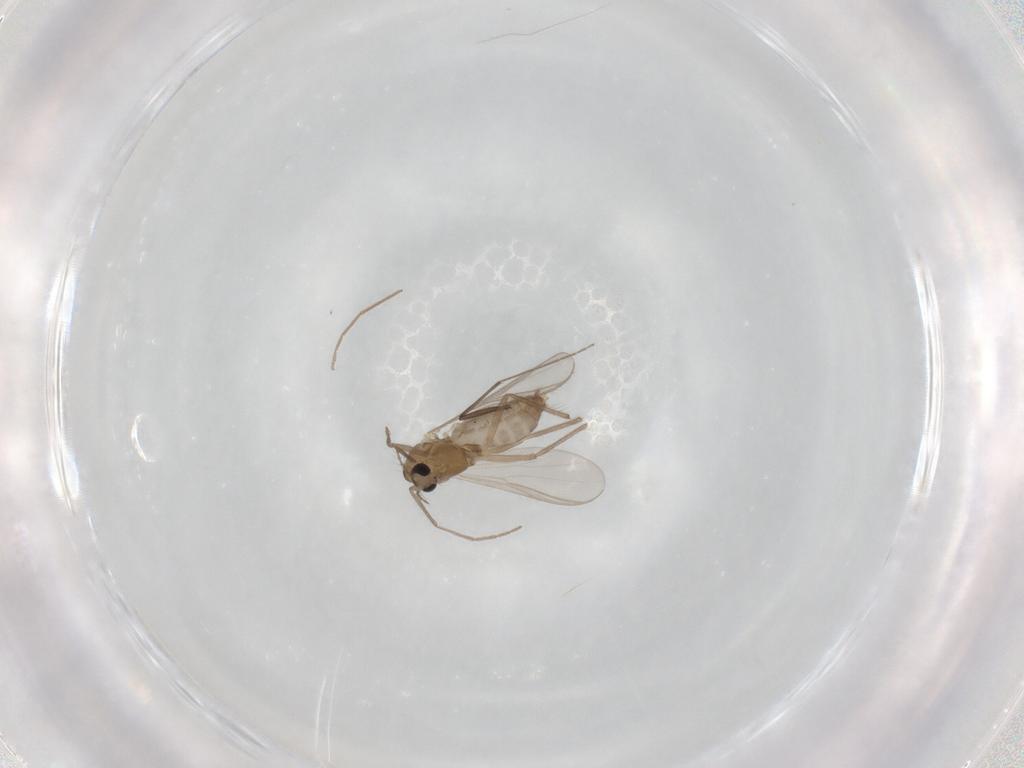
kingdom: Animalia
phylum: Arthropoda
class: Insecta
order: Diptera
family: Chironomidae
